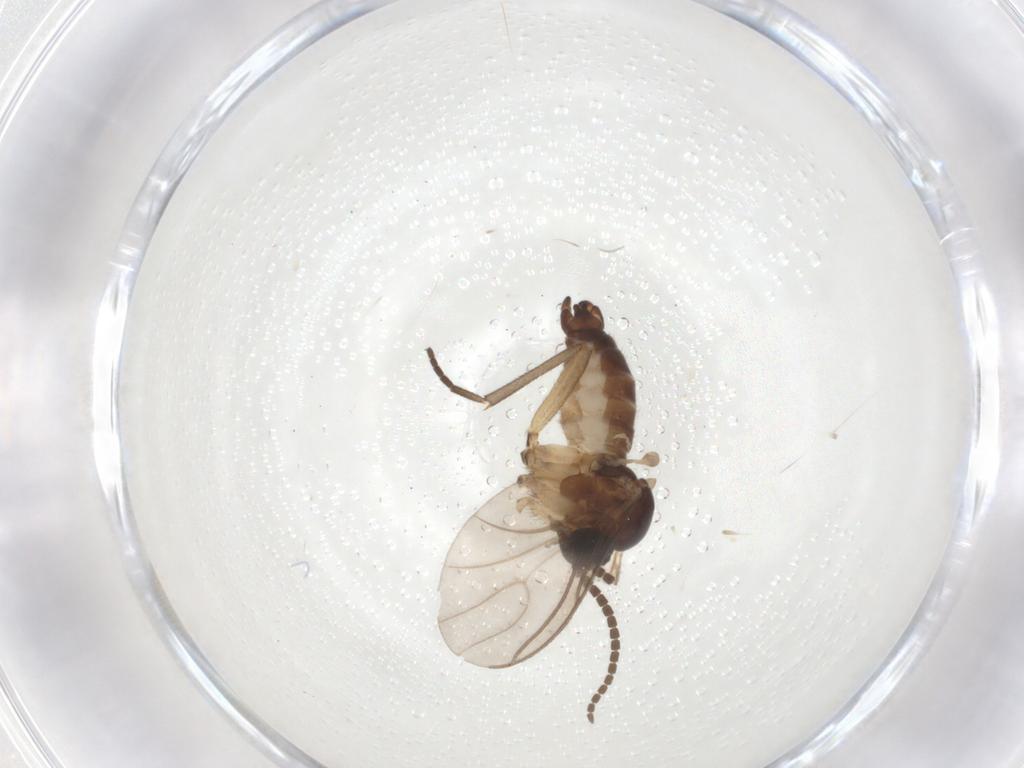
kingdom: Animalia
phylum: Arthropoda
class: Insecta
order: Diptera
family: Sciaridae
